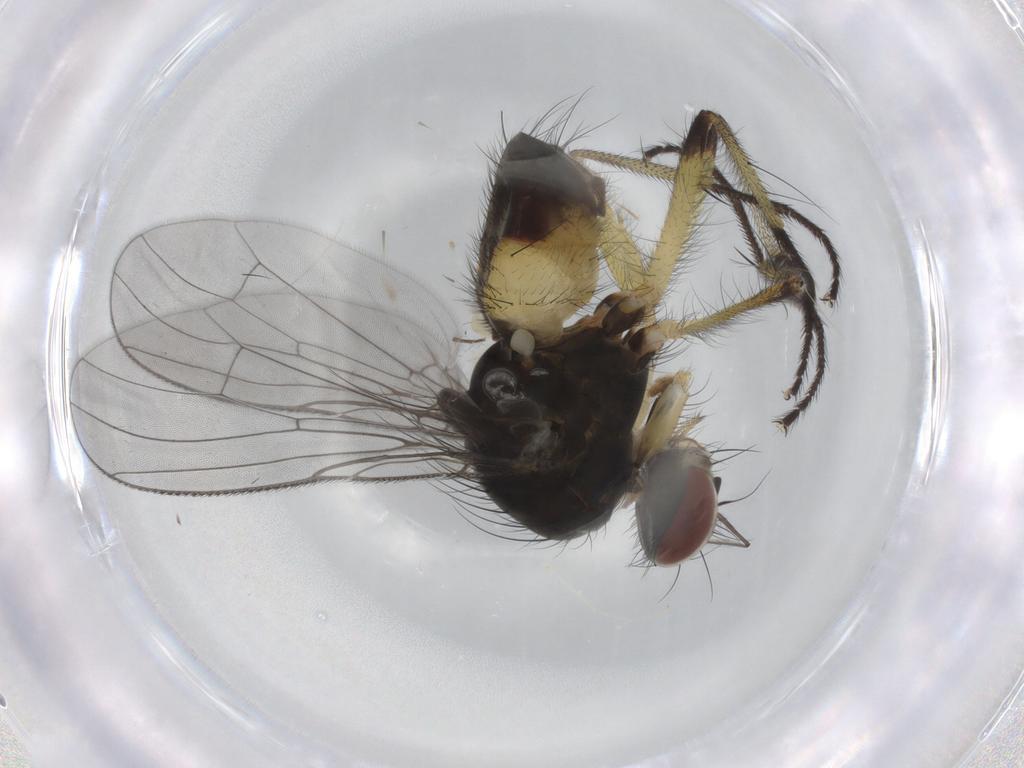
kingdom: Animalia
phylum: Arthropoda
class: Insecta
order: Diptera
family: Muscidae
